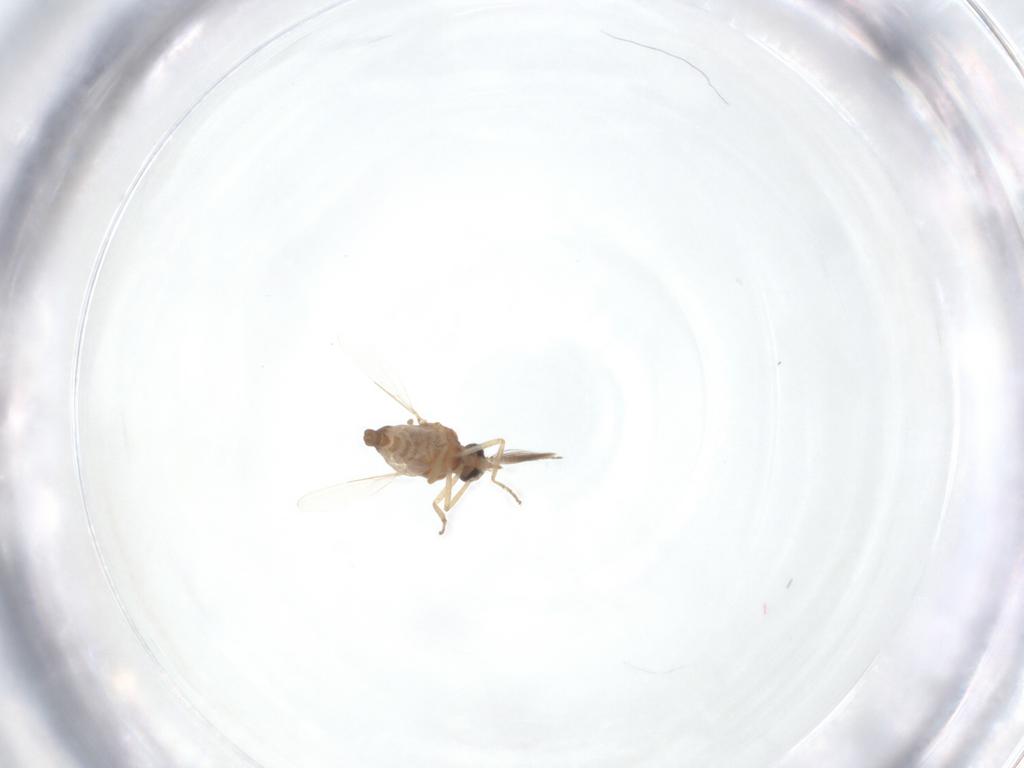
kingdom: Animalia
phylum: Arthropoda
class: Insecta
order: Diptera
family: Ceratopogonidae
